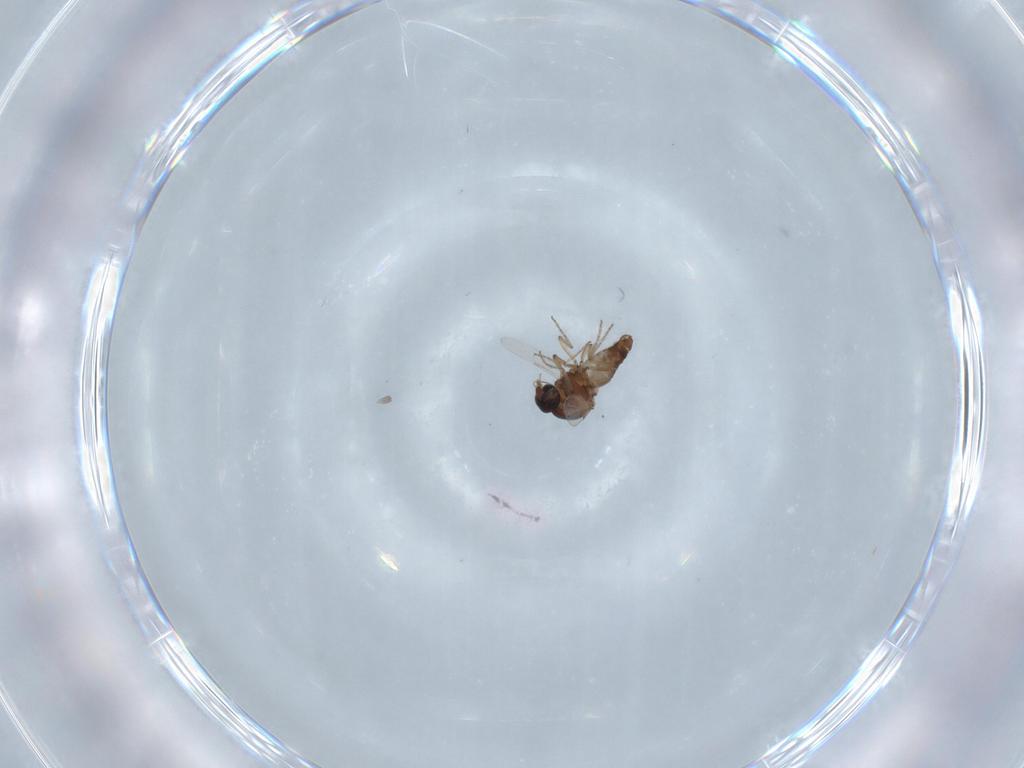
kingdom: Animalia
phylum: Arthropoda
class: Insecta
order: Diptera
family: Ceratopogonidae
